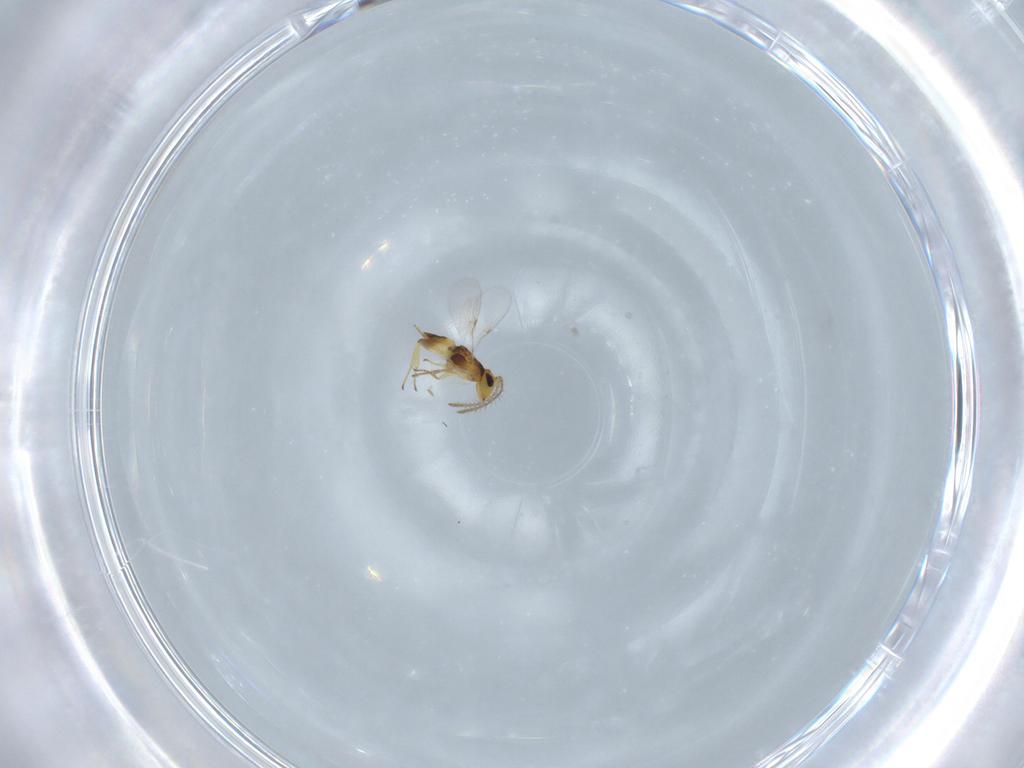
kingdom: Animalia
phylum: Arthropoda
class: Insecta
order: Hymenoptera
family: Encyrtidae
